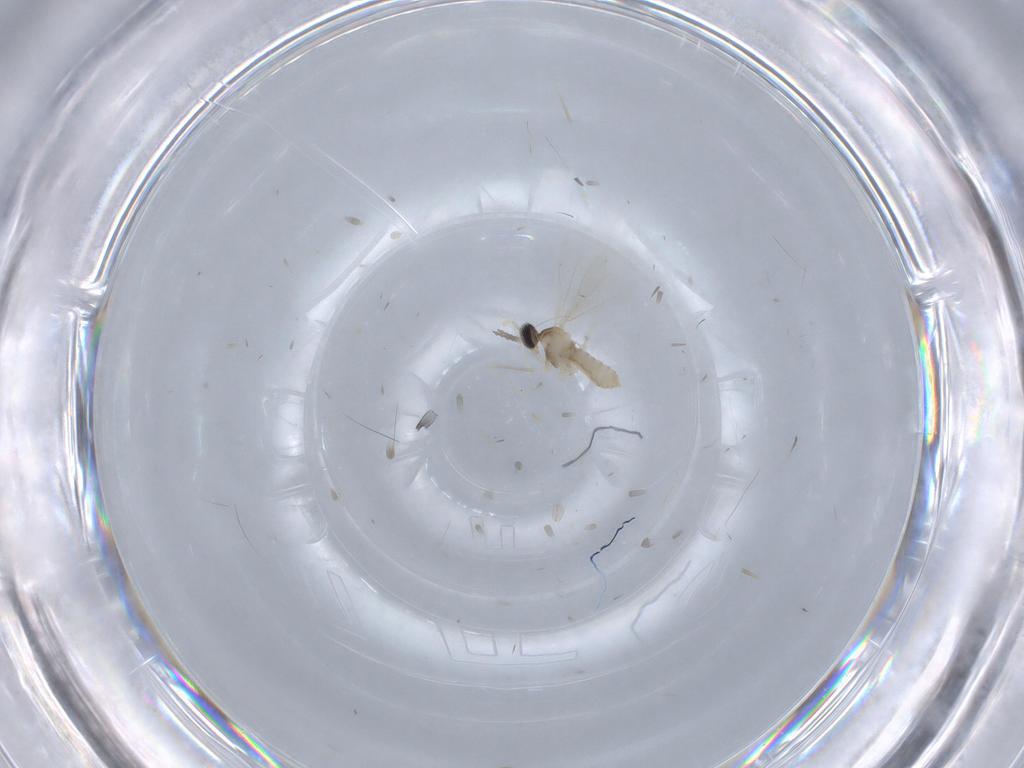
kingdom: Animalia
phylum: Arthropoda
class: Insecta
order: Diptera
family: Cecidomyiidae
